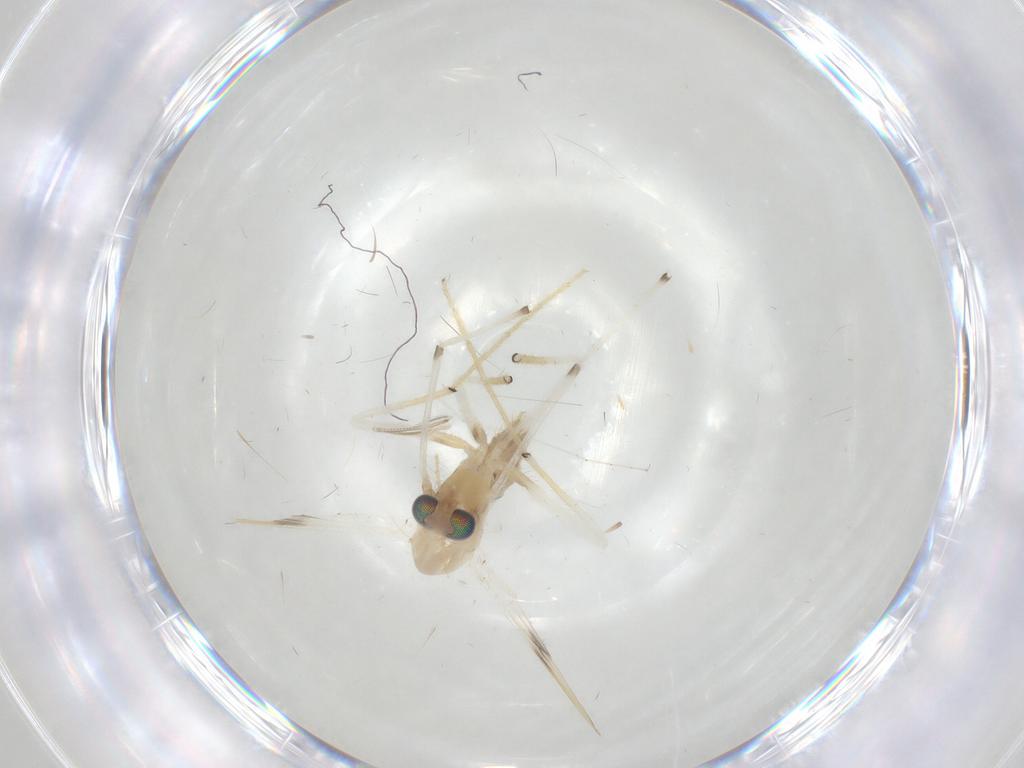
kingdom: Animalia
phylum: Arthropoda
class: Insecta
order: Diptera
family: Chironomidae
